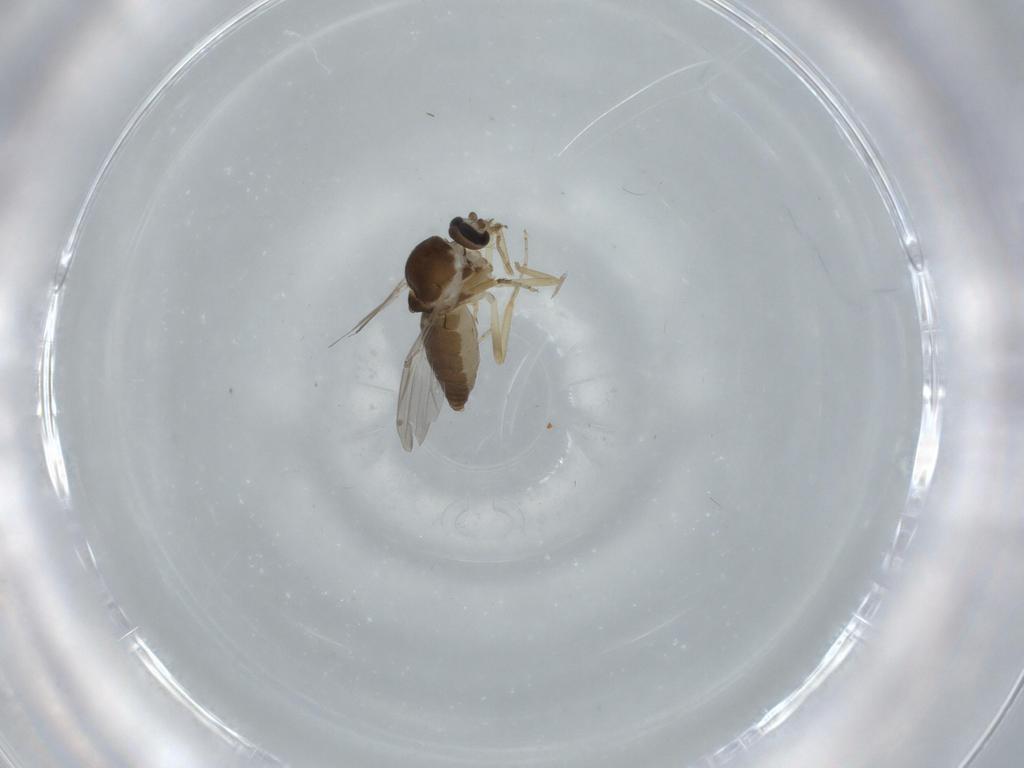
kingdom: Animalia
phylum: Arthropoda
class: Insecta
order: Diptera
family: Ceratopogonidae
